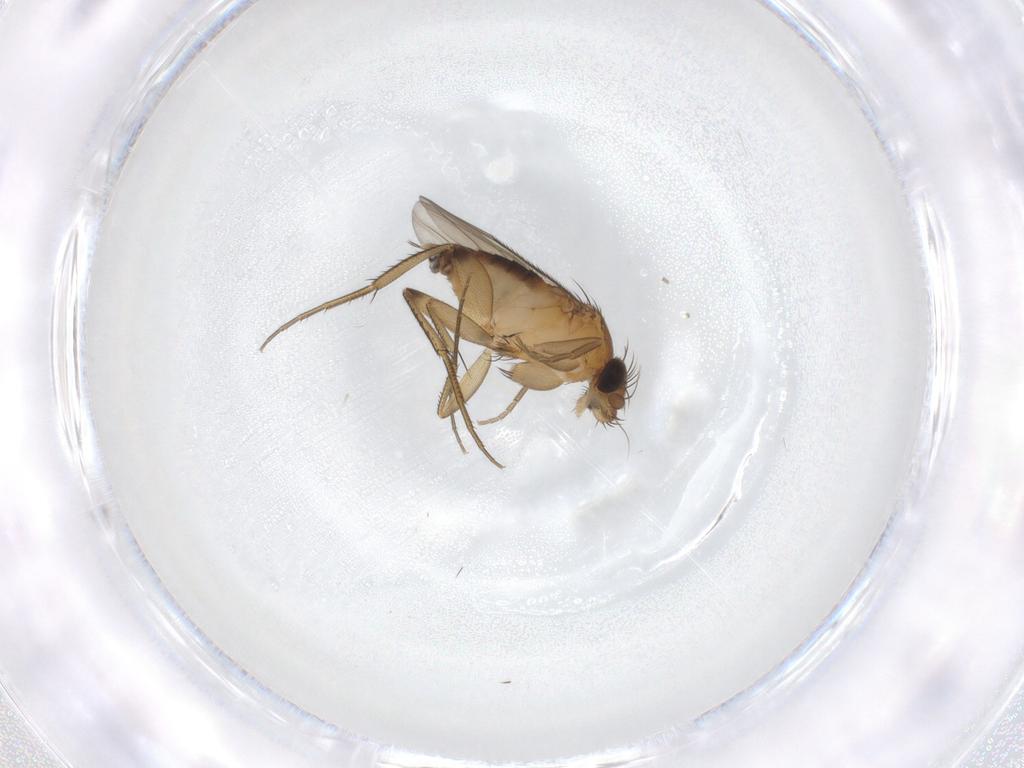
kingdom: Animalia
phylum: Arthropoda
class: Insecta
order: Diptera
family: Phoridae
